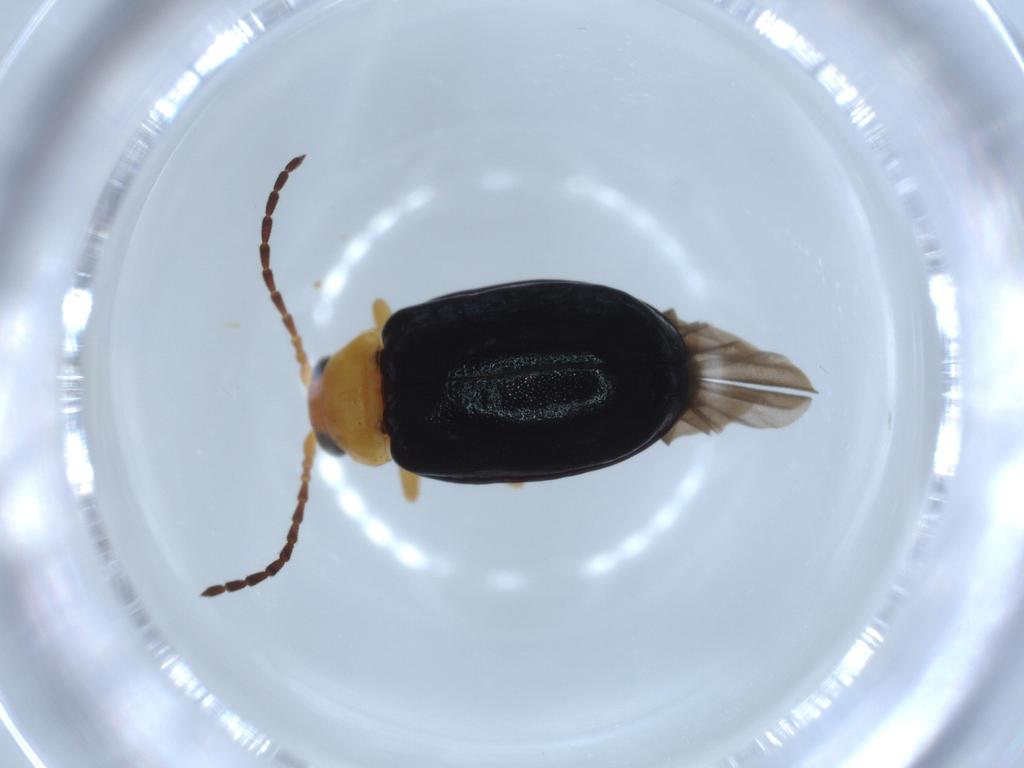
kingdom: Animalia
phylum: Arthropoda
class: Insecta
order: Coleoptera
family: Chrysomelidae
